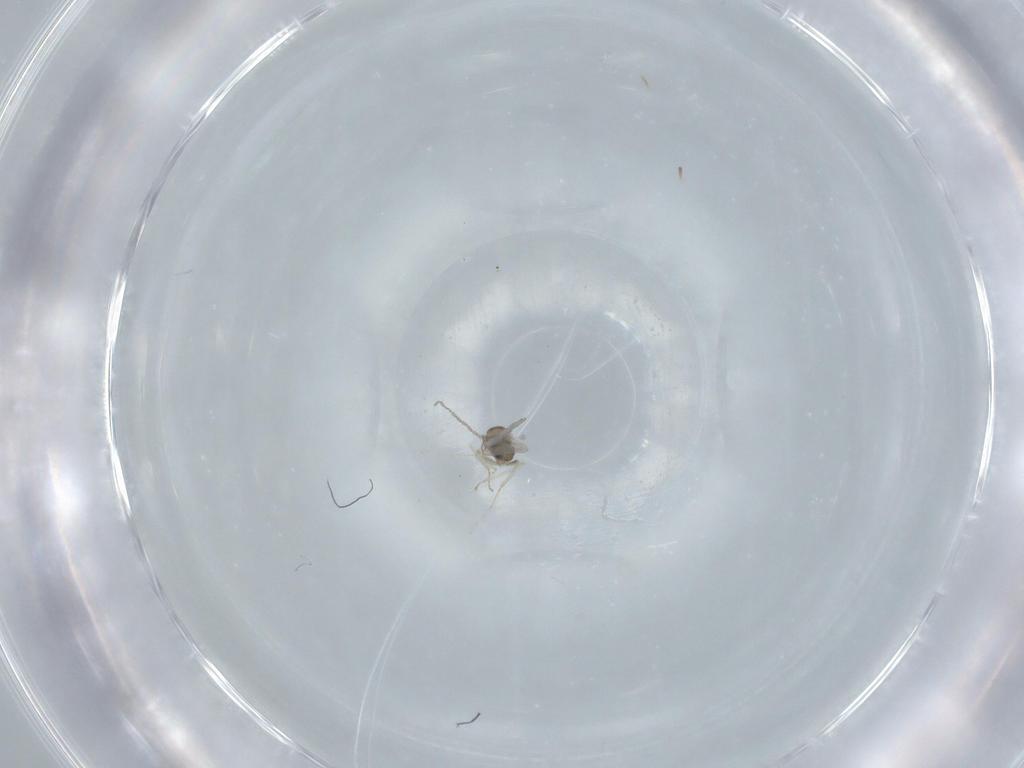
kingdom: Animalia
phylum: Arthropoda
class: Insecta
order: Diptera
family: Cecidomyiidae
